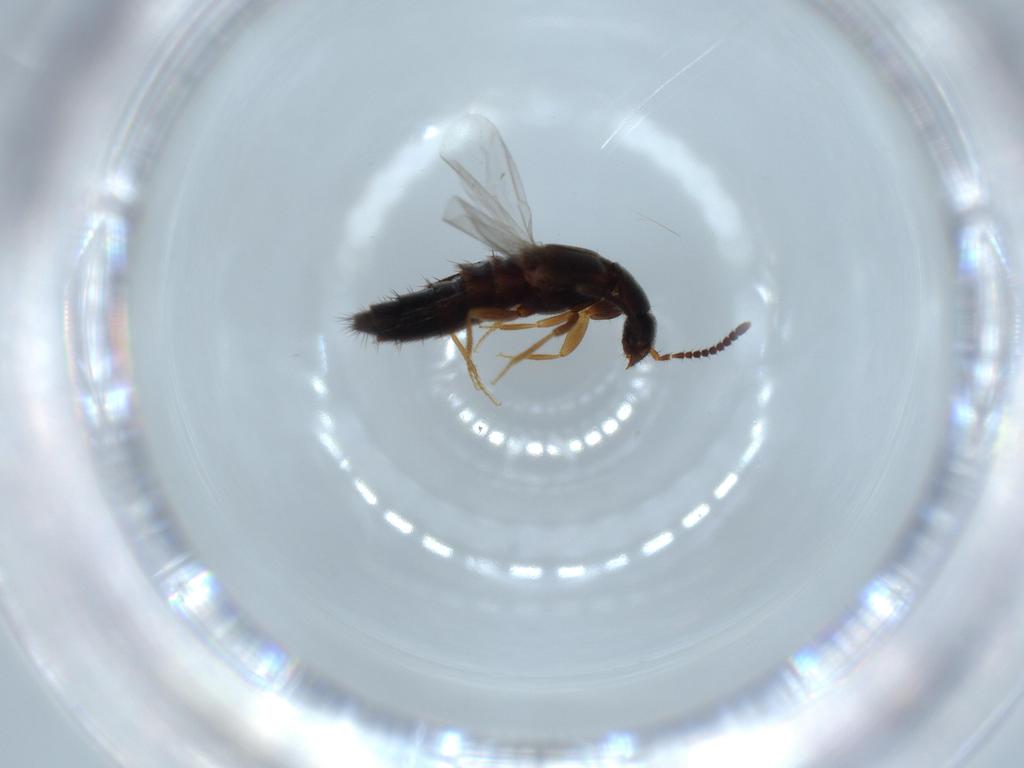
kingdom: Animalia
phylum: Arthropoda
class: Insecta
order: Coleoptera
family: Staphylinidae
